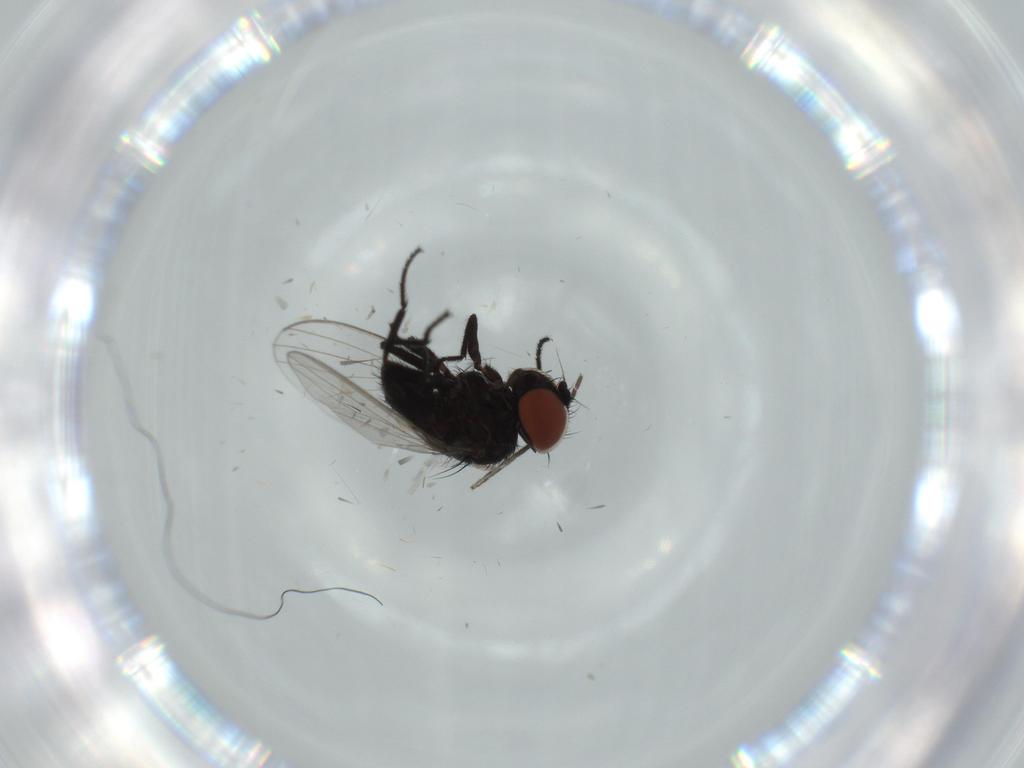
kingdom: Animalia
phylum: Arthropoda
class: Insecta
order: Diptera
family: Milichiidae
